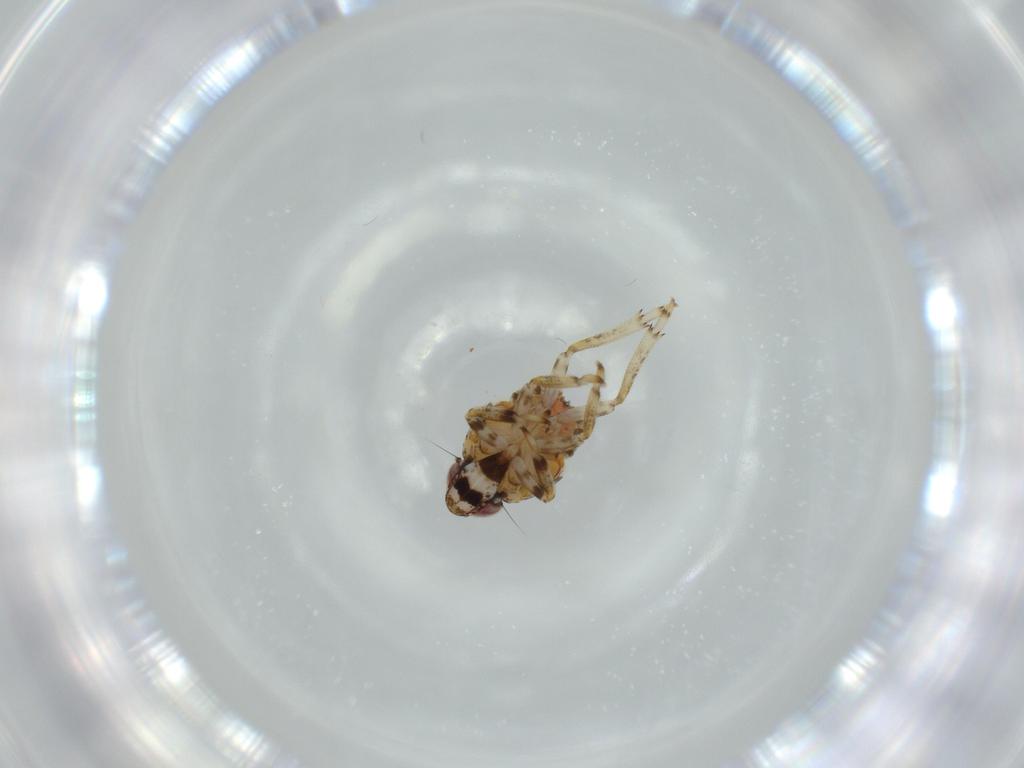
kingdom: Animalia
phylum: Arthropoda
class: Insecta
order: Hemiptera
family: Issidae
